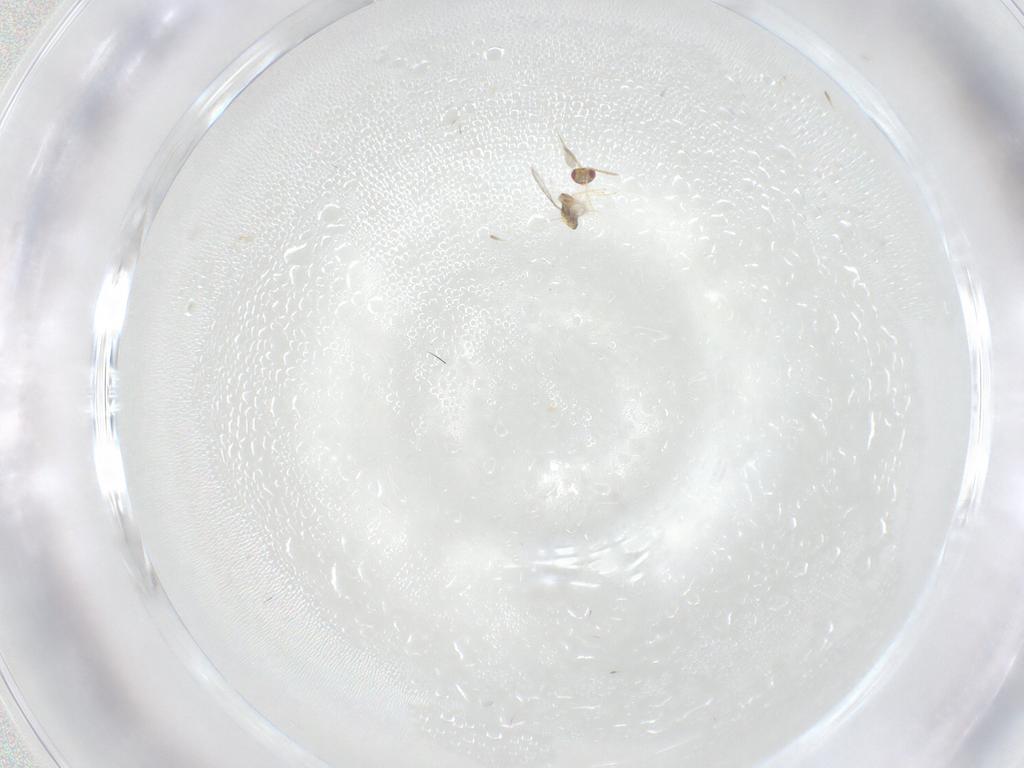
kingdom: Animalia
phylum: Arthropoda
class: Insecta
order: Hymenoptera
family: Aphelinidae
